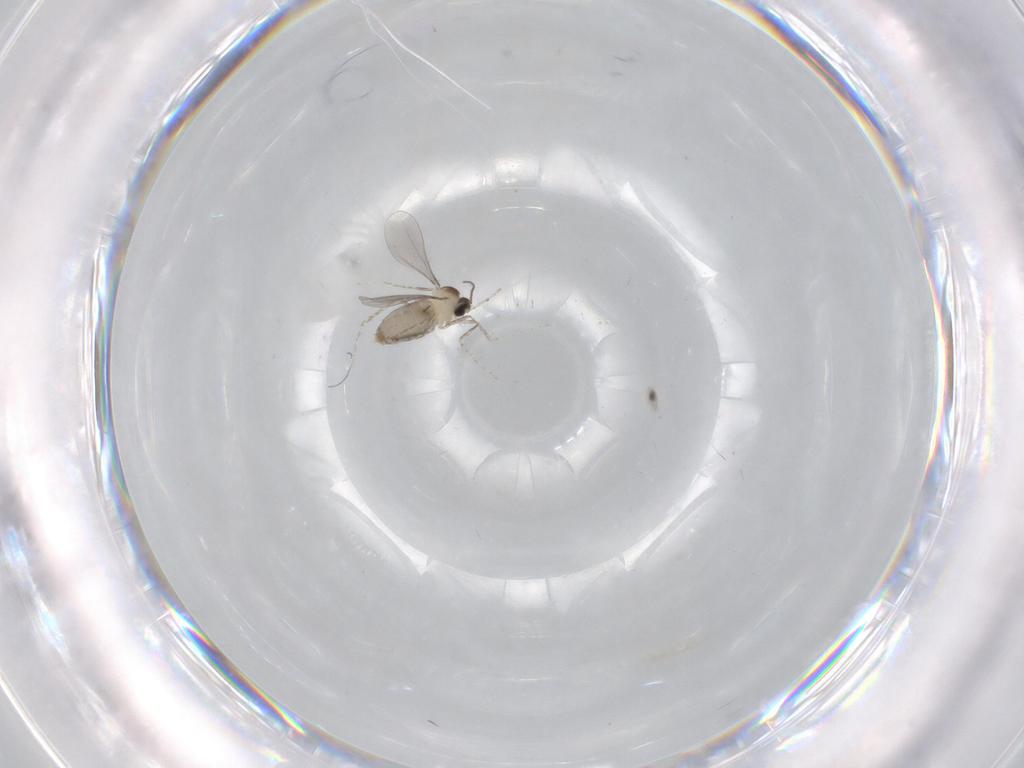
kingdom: Animalia
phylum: Arthropoda
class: Insecta
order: Diptera
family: Cecidomyiidae
